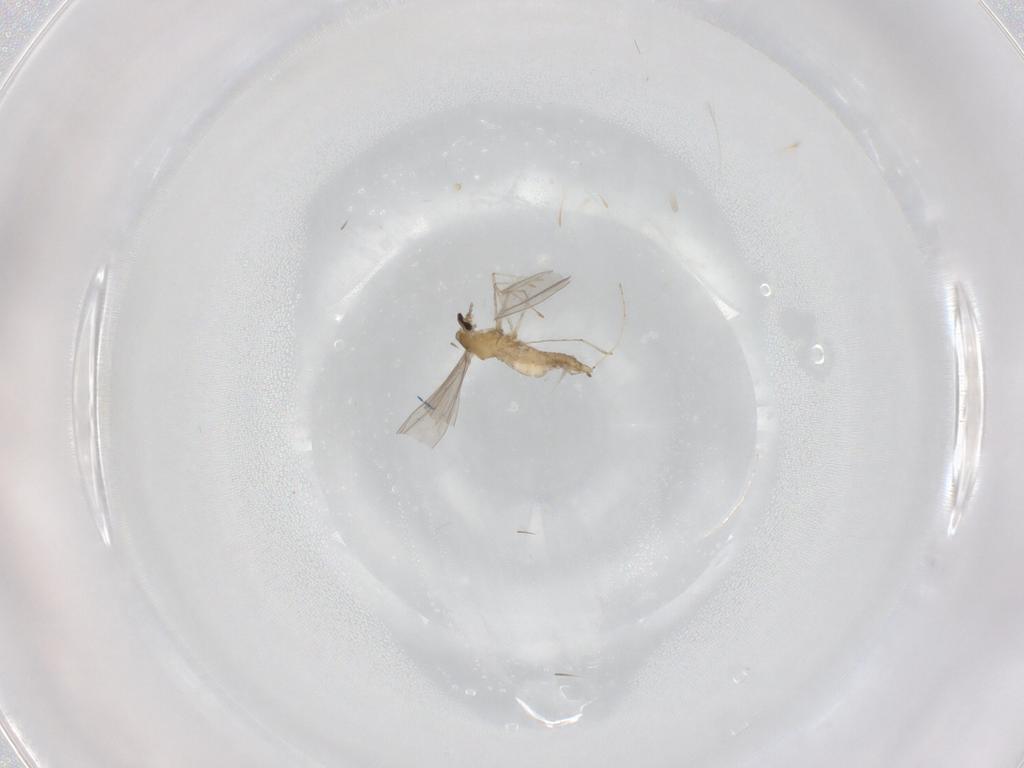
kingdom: Animalia
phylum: Arthropoda
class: Insecta
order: Diptera
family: Cecidomyiidae
